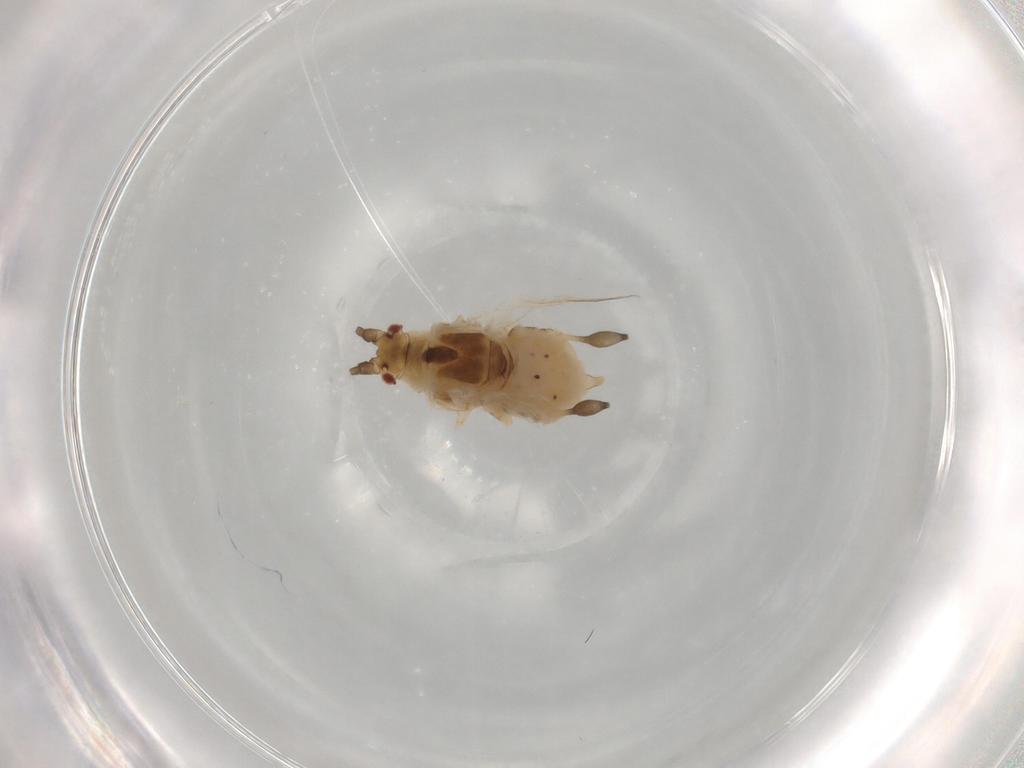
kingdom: Animalia
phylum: Arthropoda
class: Insecta
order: Hemiptera
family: Aphididae
